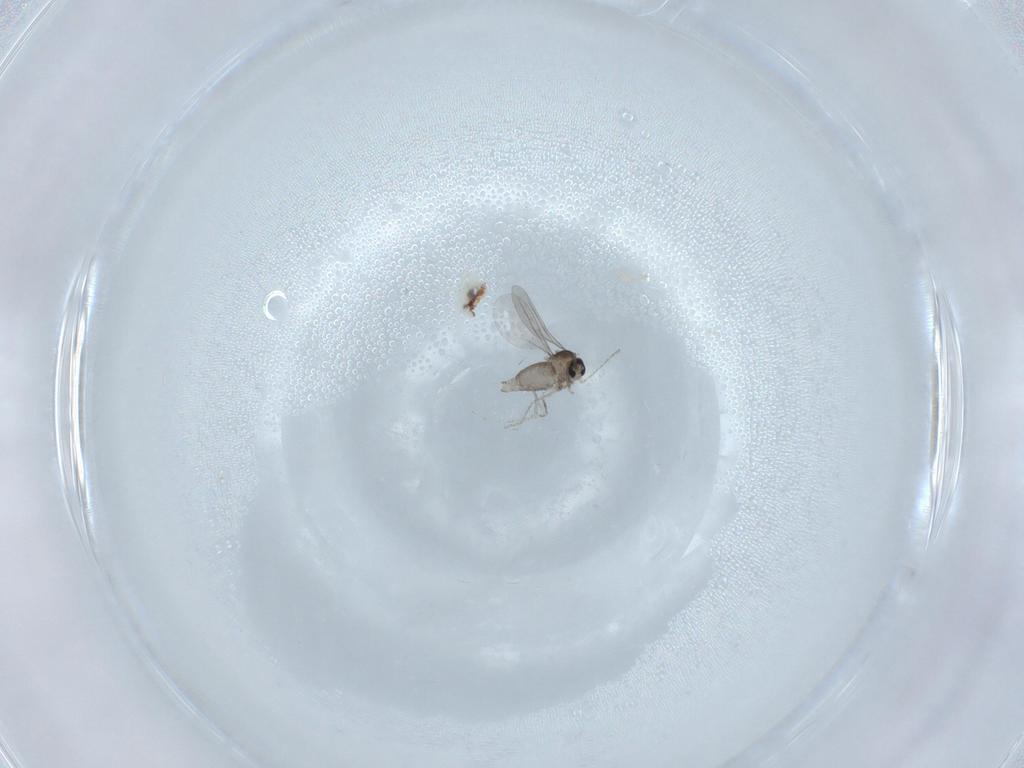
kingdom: Animalia
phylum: Arthropoda
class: Insecta
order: Diptera
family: Cecidomyiidae
